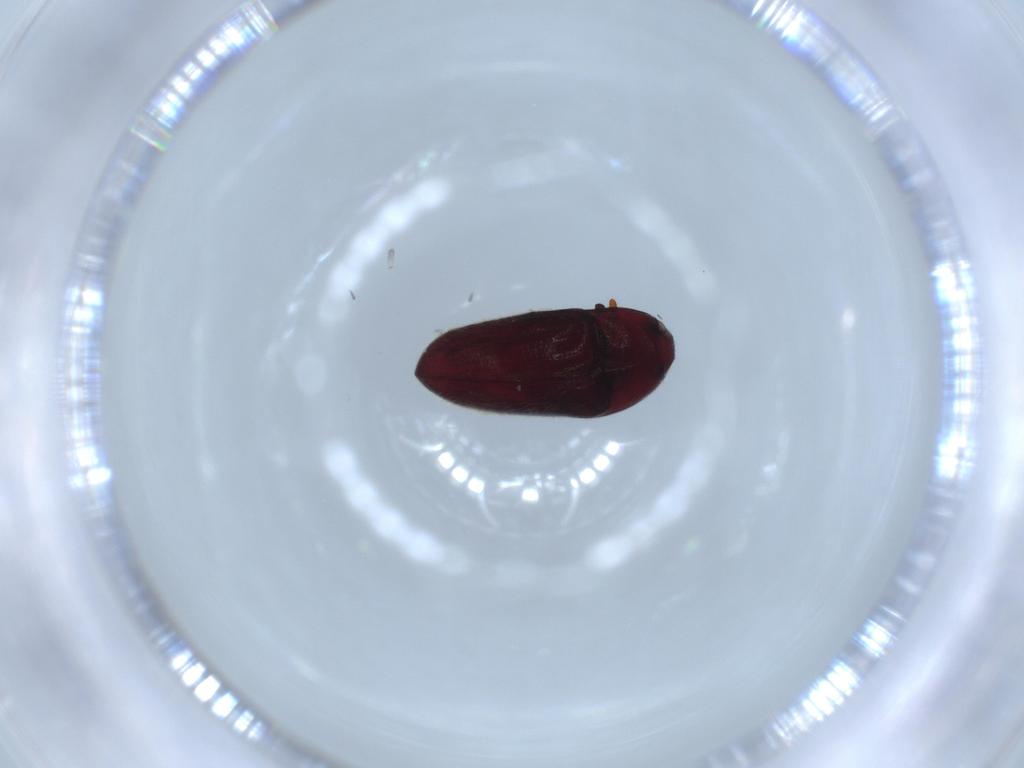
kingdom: Animalia
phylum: Arthropoda
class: Insecta
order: Coleoptera
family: Throscidae
